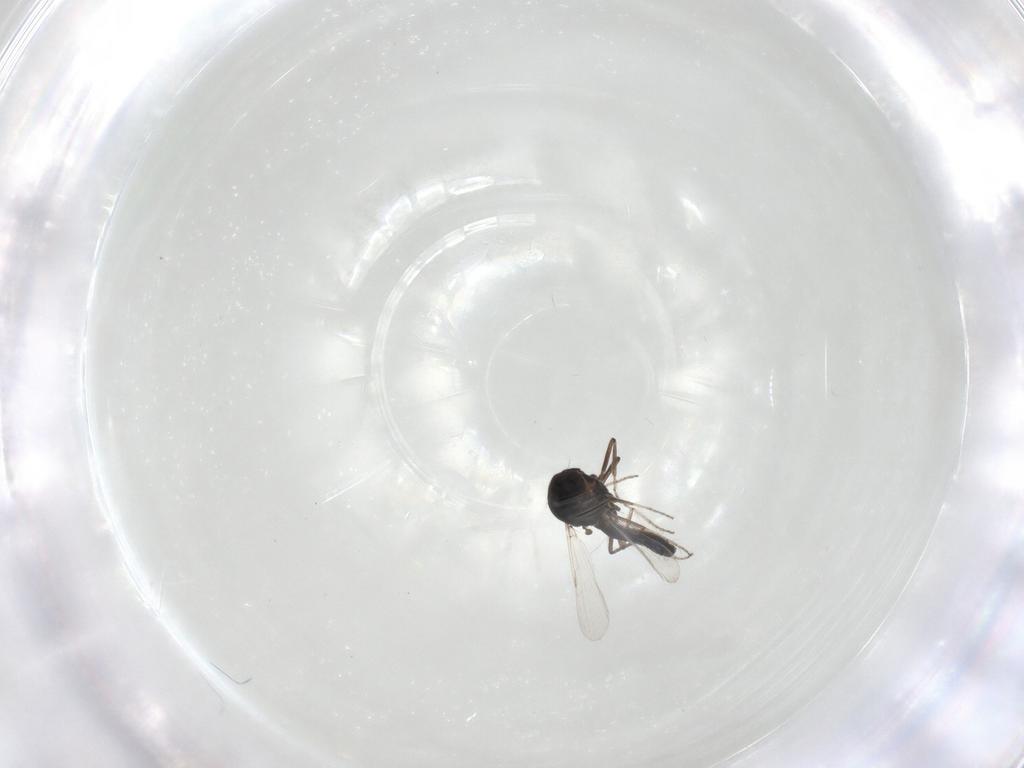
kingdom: Animalia
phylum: Arthropoda
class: Insecta
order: Diptera
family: Ceratopogonidae
